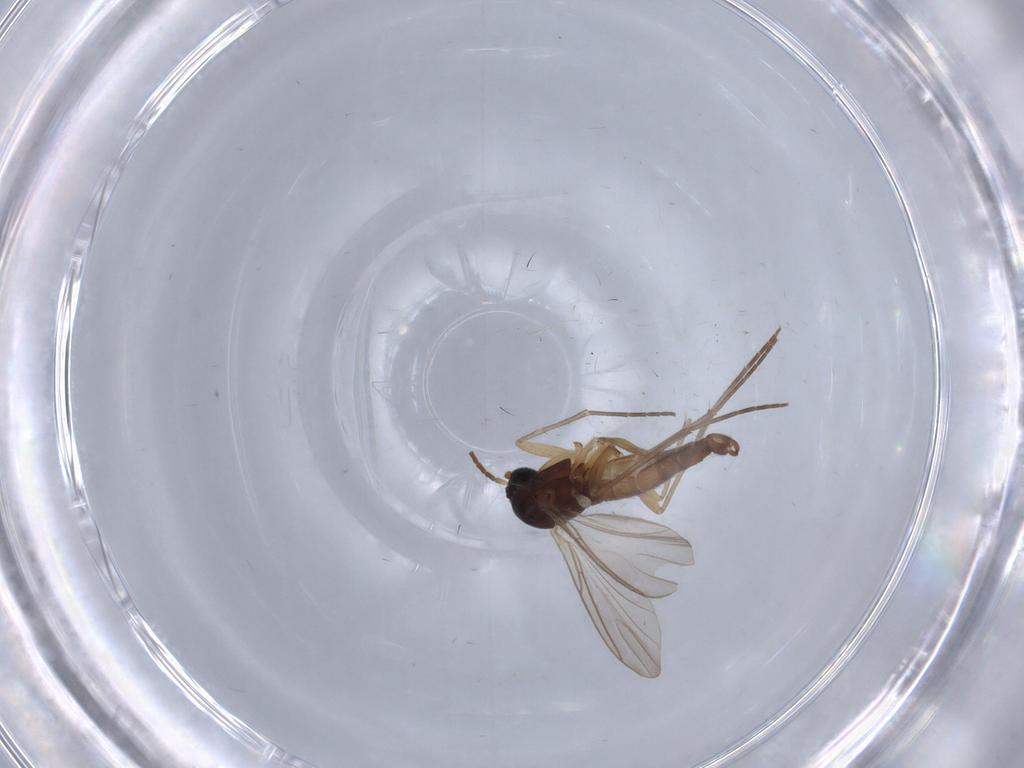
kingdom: Animalia
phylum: Arthropoda
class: Insecta
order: Diptera
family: Sciaridae
